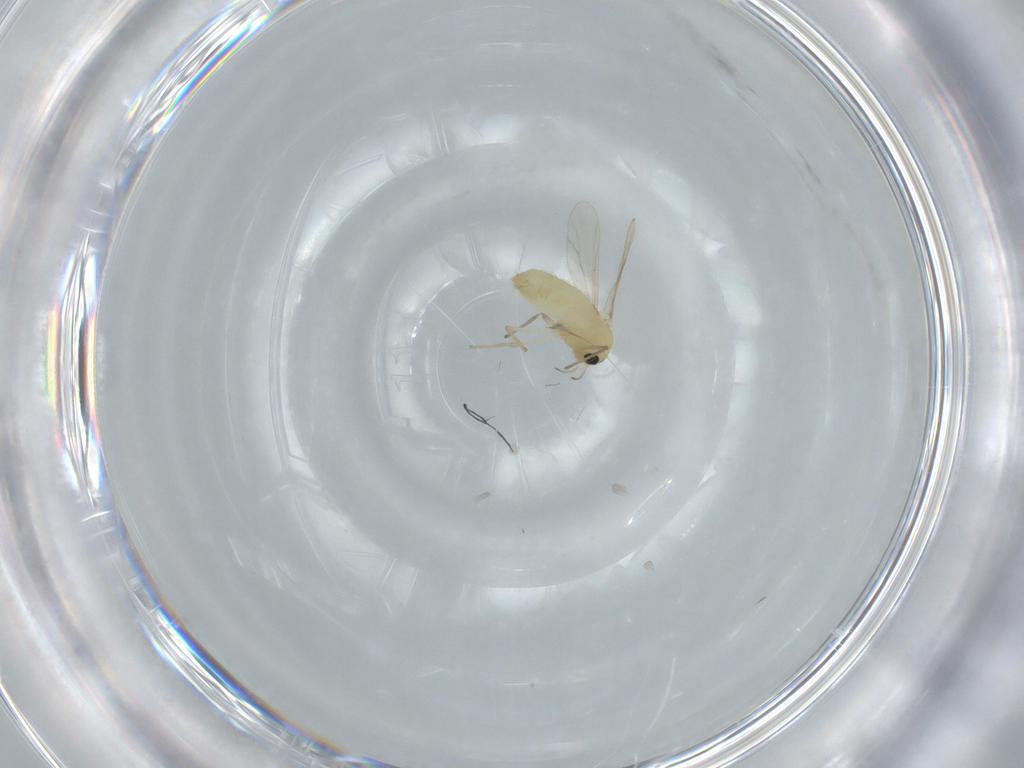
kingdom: Animalia
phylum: Arthropoda
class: Insecta
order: Diptera
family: Chironomidae
